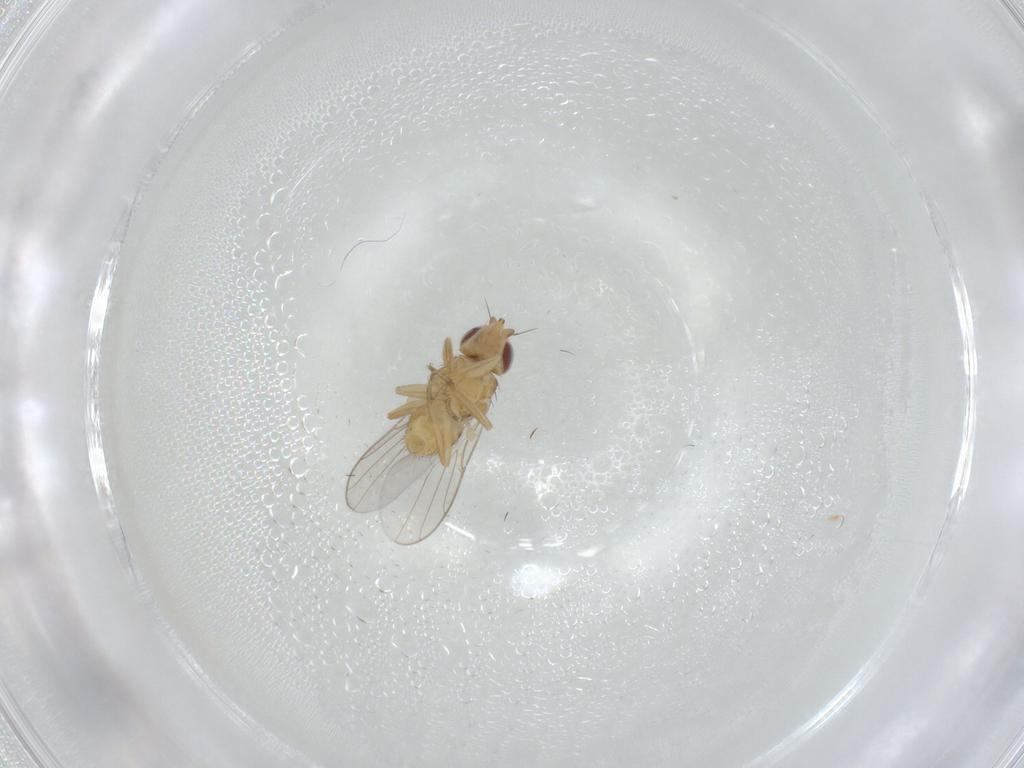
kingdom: Animalia
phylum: Arthropoda
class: Insecta
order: Diptera
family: Chloropidae
